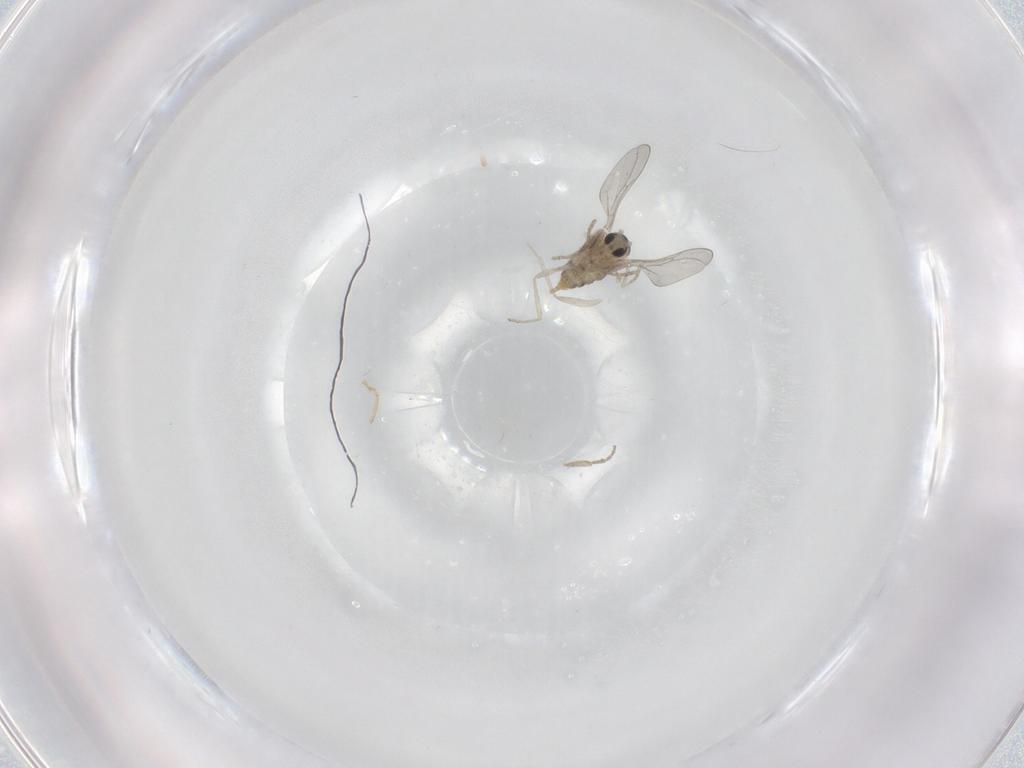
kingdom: Animalia
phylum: Arthropoda
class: Insecta
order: Diptera
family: Cecidomyiidae
